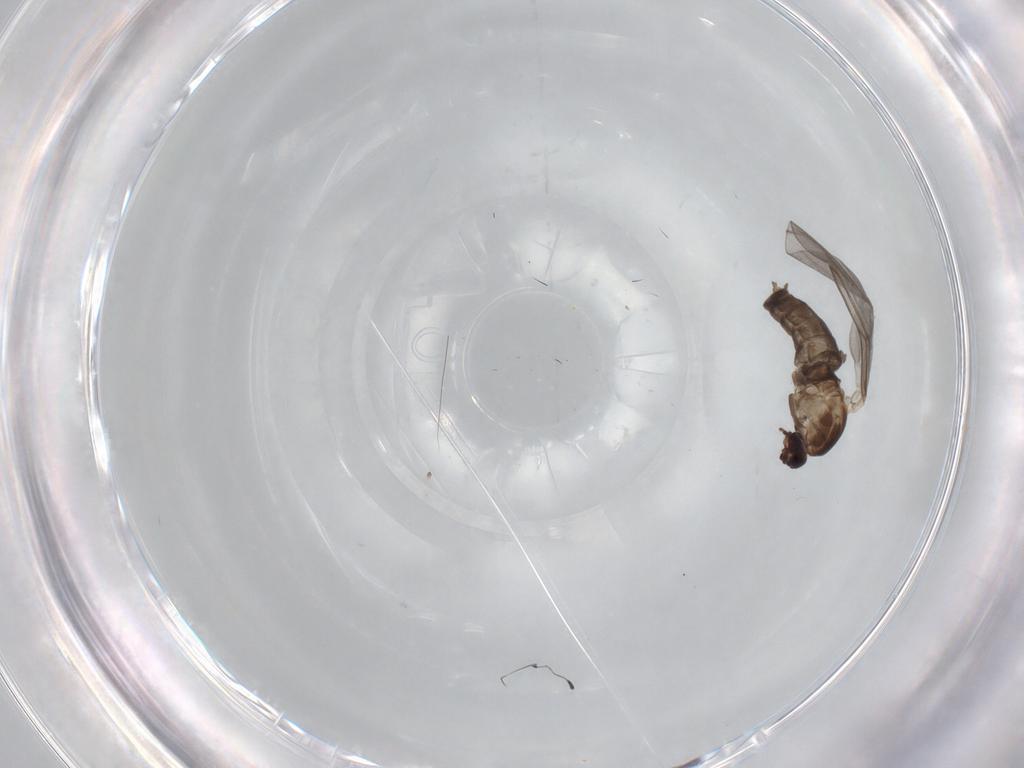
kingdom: Animalia
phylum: Arthropoda
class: Insecta
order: Diptera
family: Cecidomyiidae
